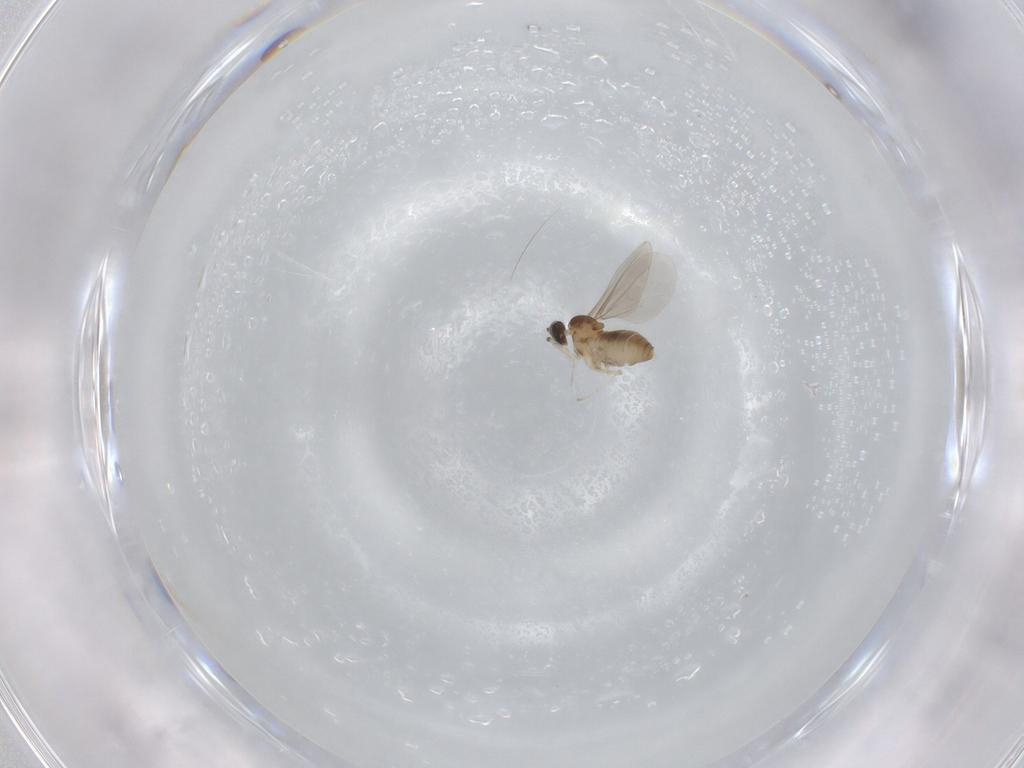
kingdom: Animalia
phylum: Arthropoda
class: Insecta
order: Diptera
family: Cecidomyiidae
